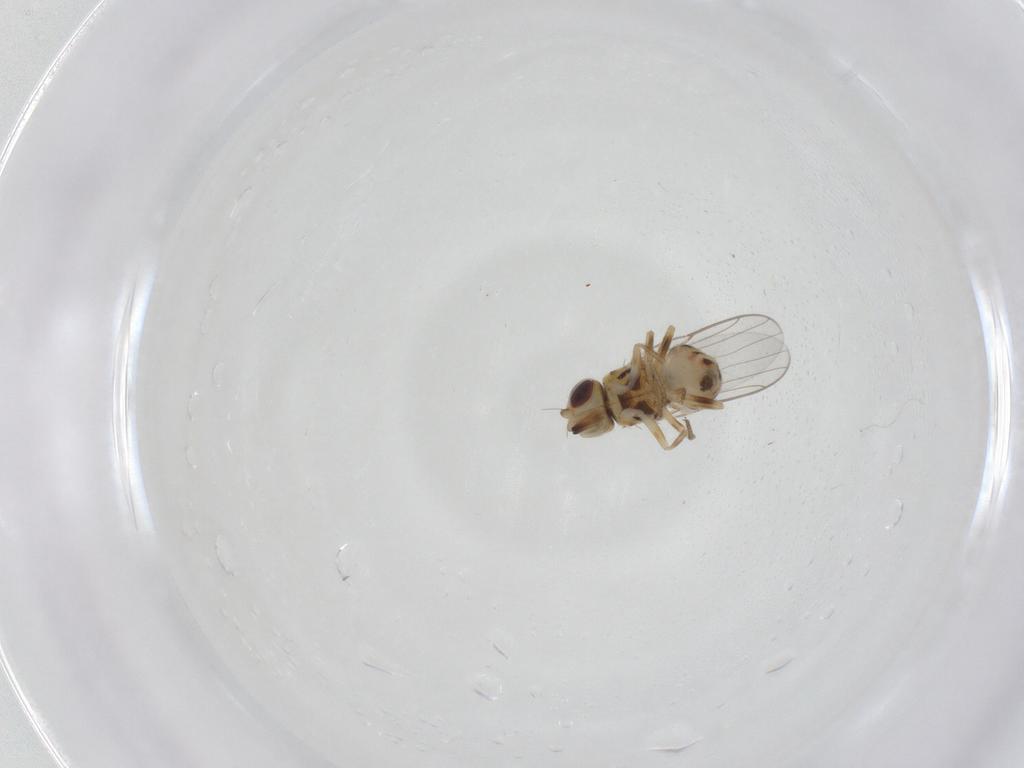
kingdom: Animalia
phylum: Arthropoda
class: Insecta
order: Diptera
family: Chloropidae
